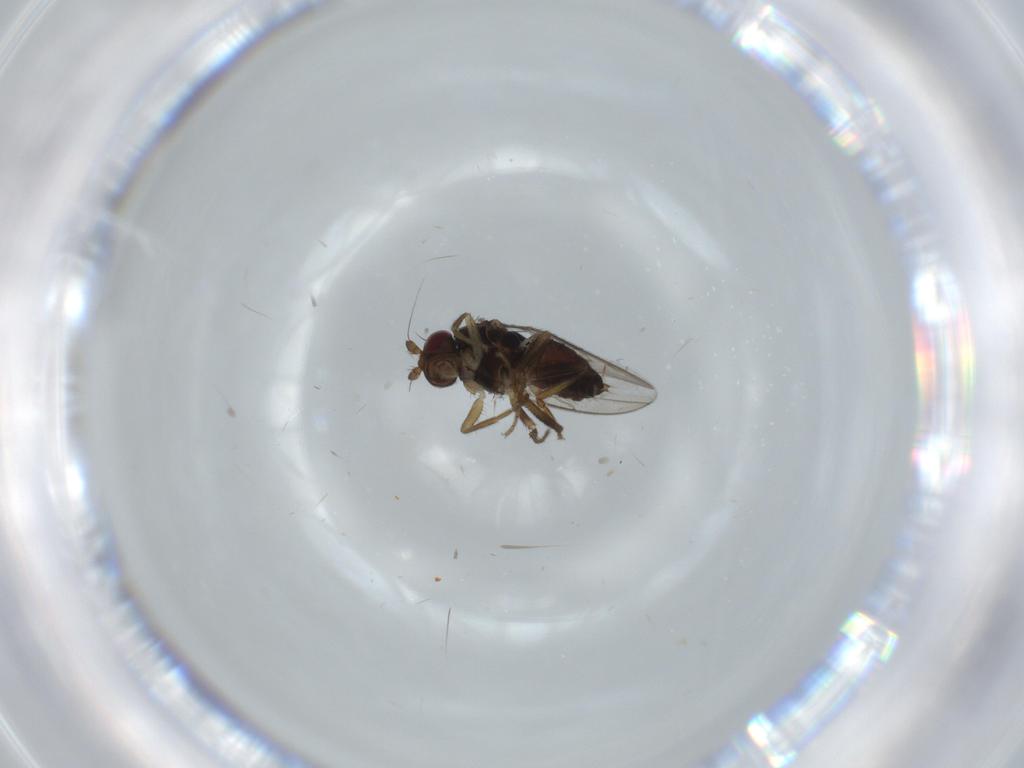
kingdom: Animalia
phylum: Arthropoda
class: Insecta
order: Diptera
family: Sphaeroceridae
